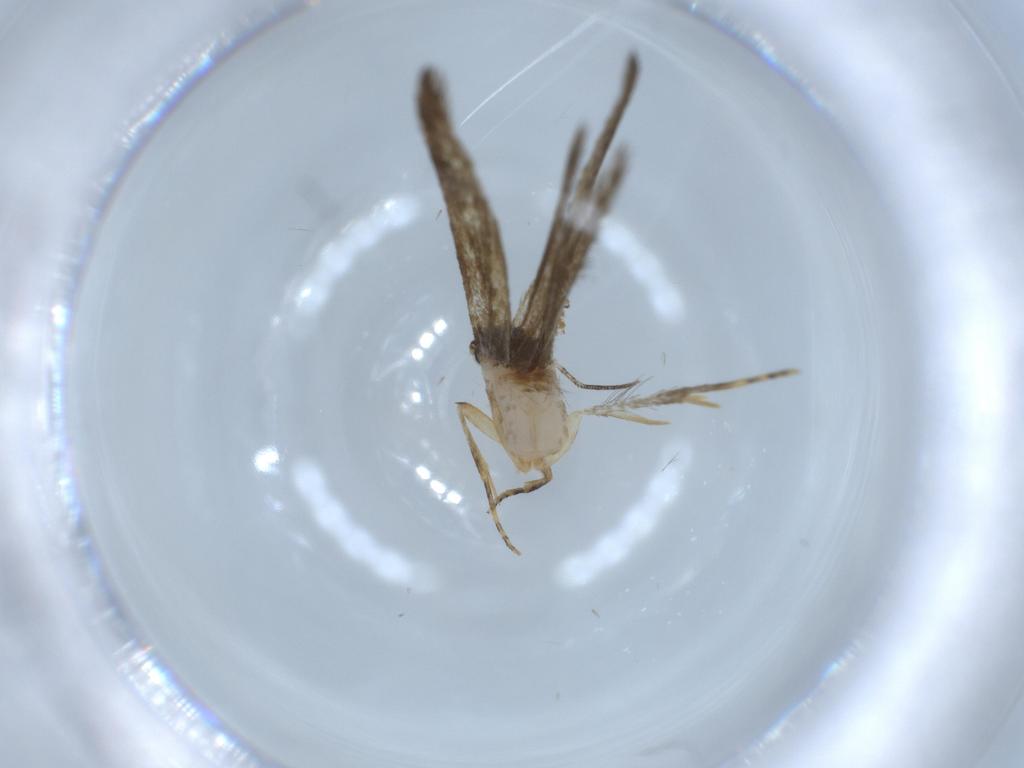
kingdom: Animalia
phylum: Arthropoda
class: Insecta
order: Lepidoptera
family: Tineidae
